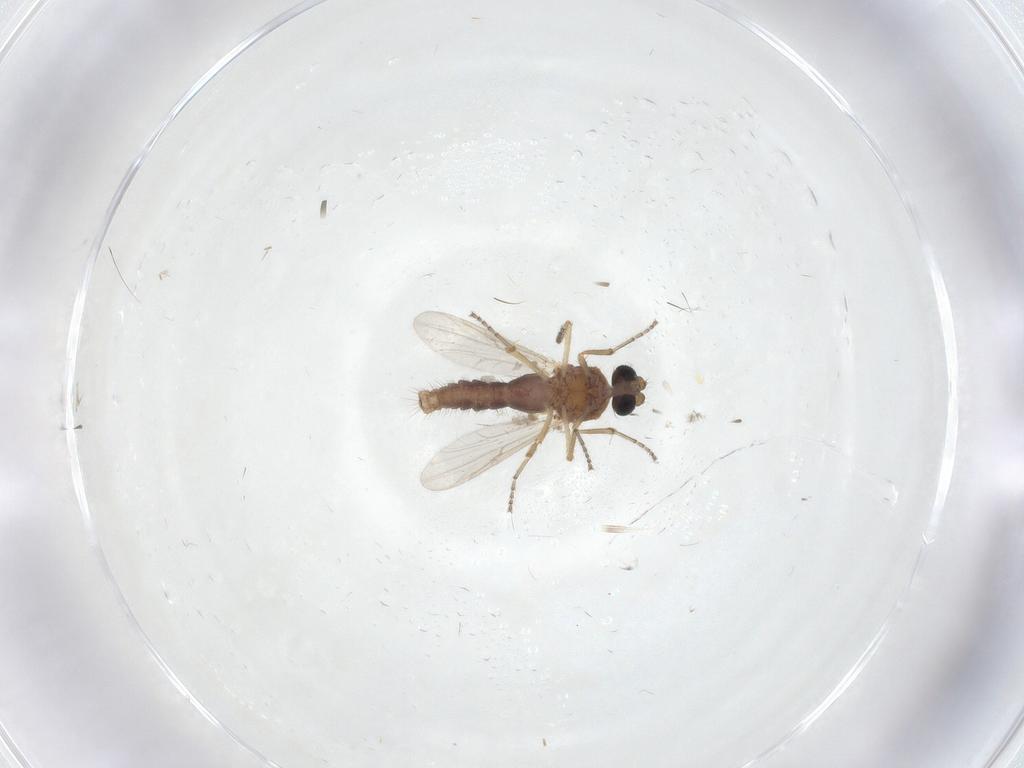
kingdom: Animalia
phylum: Arthropoda
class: Insecta
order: Diptera
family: Ceratopogonidae
